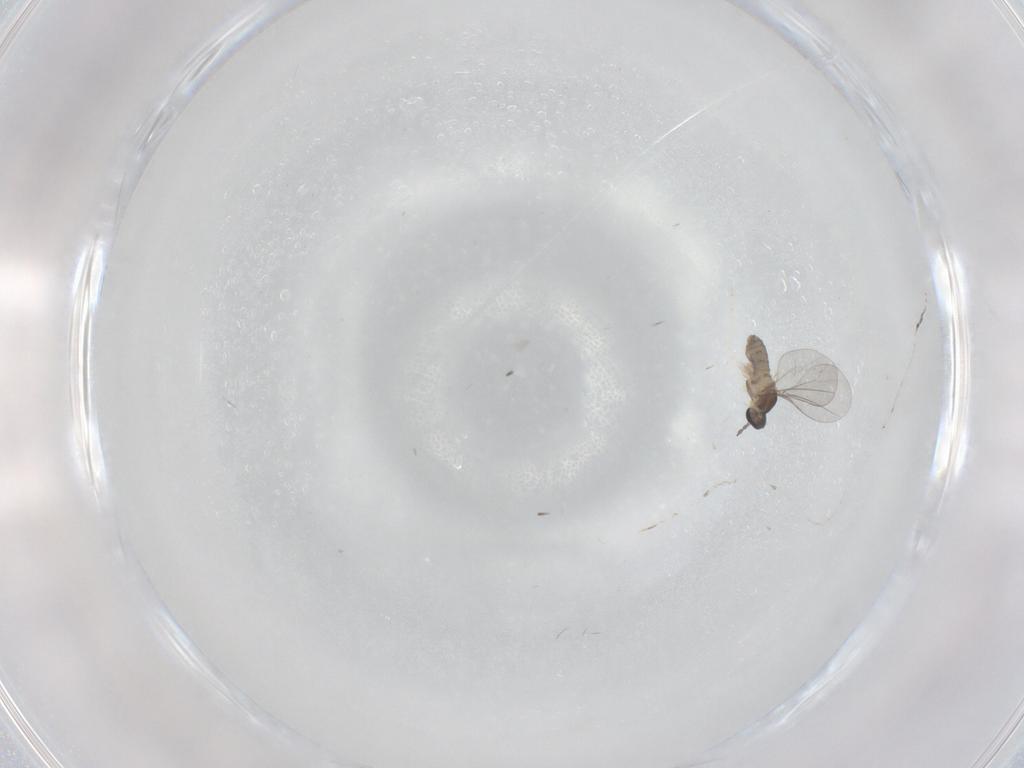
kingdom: Animalia
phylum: Arthropoda
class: Insecta
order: Diptera
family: Cecidomyiidae
